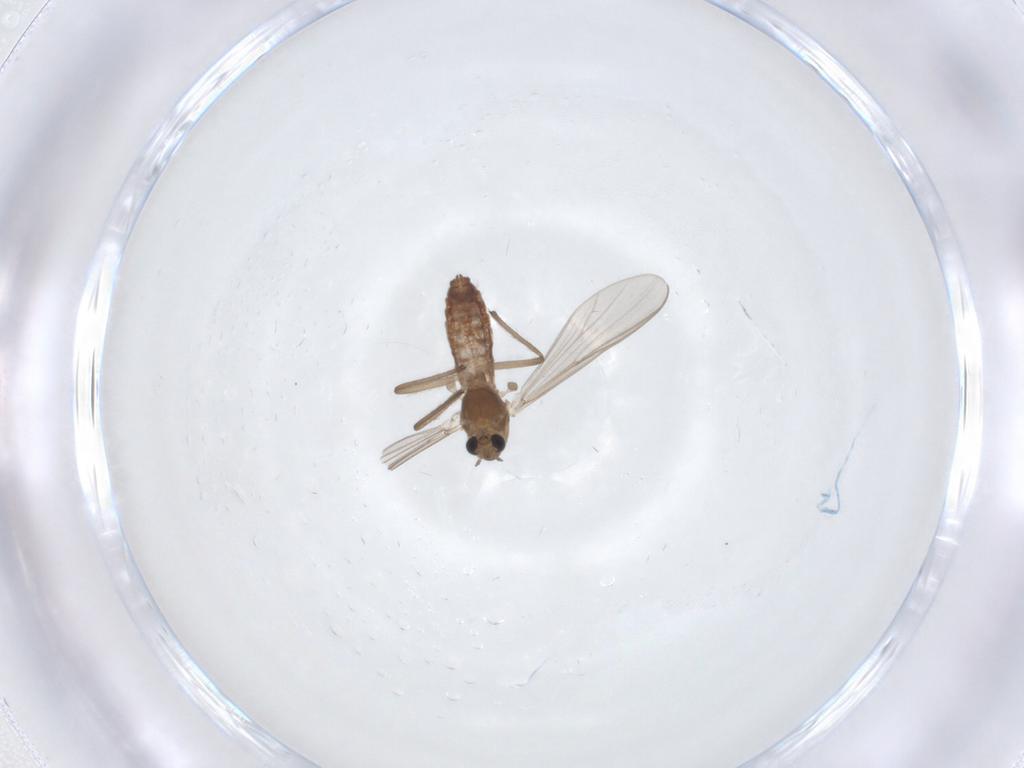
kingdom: Animalia
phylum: Arthropoda
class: Insecta
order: Diptera
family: Chironomidae
